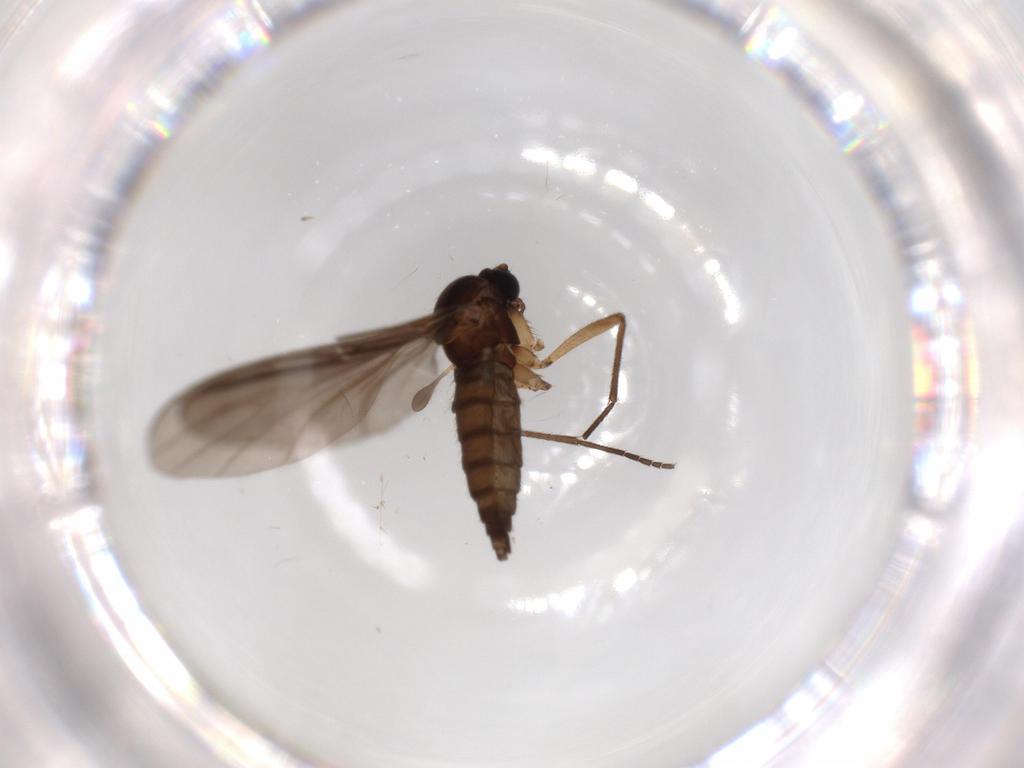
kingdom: Animalia
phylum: Arthropoda
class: Insecta
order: Diptera
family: Sciaridae
